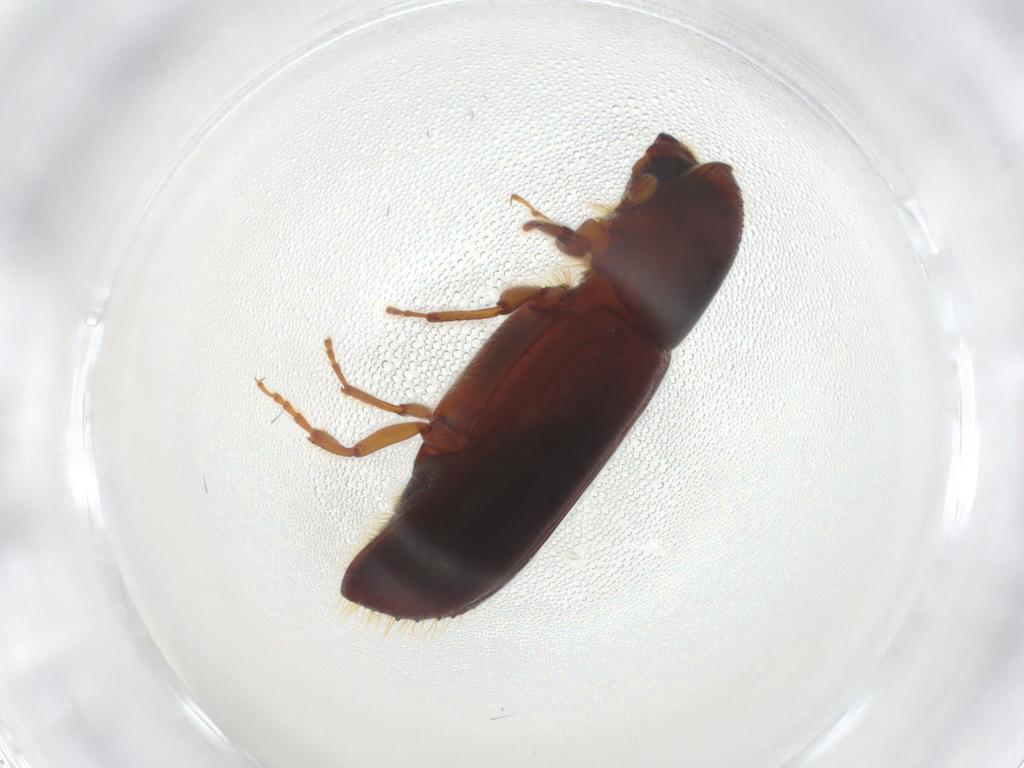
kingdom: Animalia
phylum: Arthropoda
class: Insecta
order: Coleoptera
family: Curculionidae
